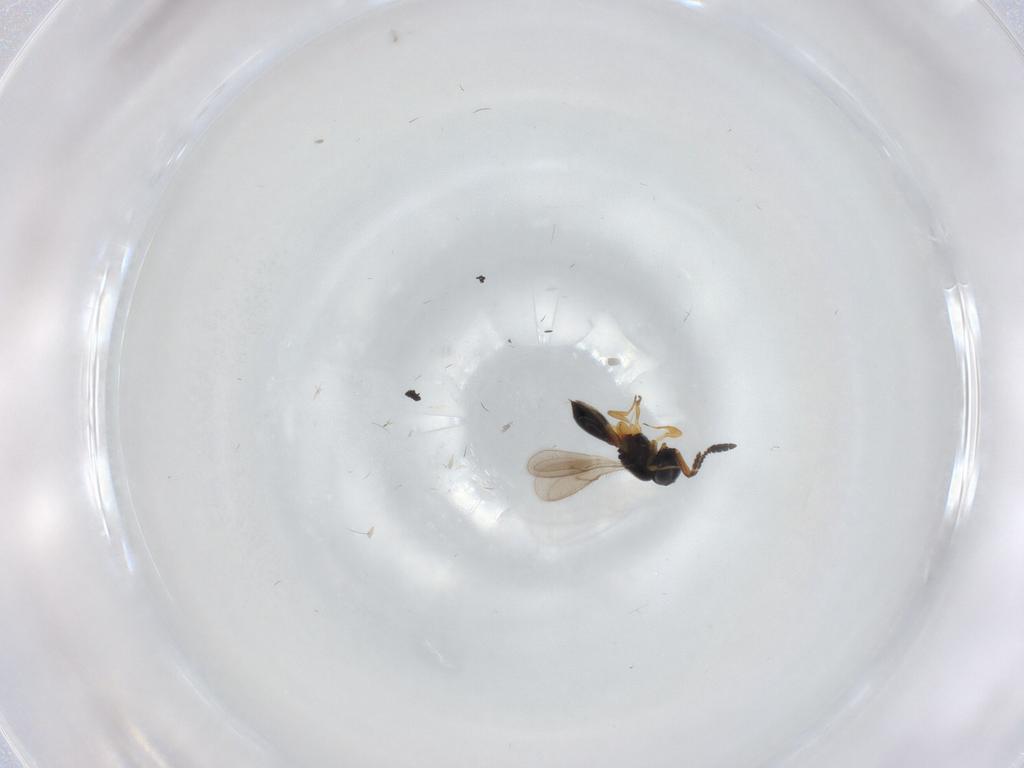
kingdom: Animalia
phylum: Arthropoda
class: Insecta
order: Hymenoptera
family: Scelionidae
